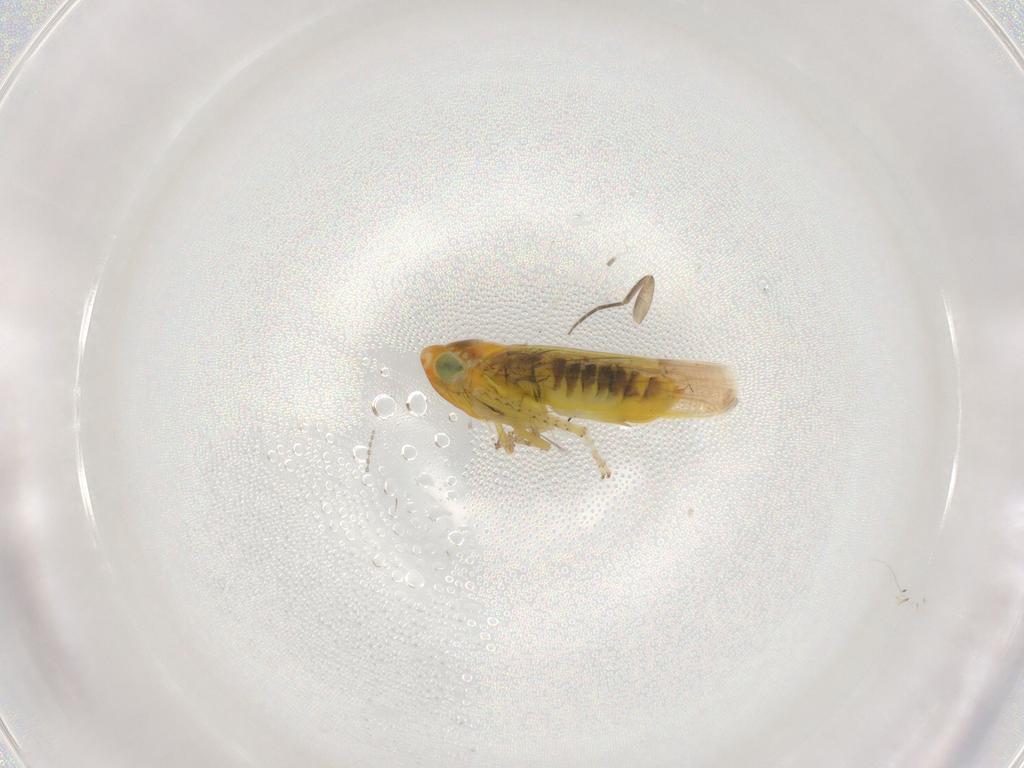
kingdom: Animalia
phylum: Arthropoda
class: Insecta
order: Hemiptera
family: Cicadellidae
